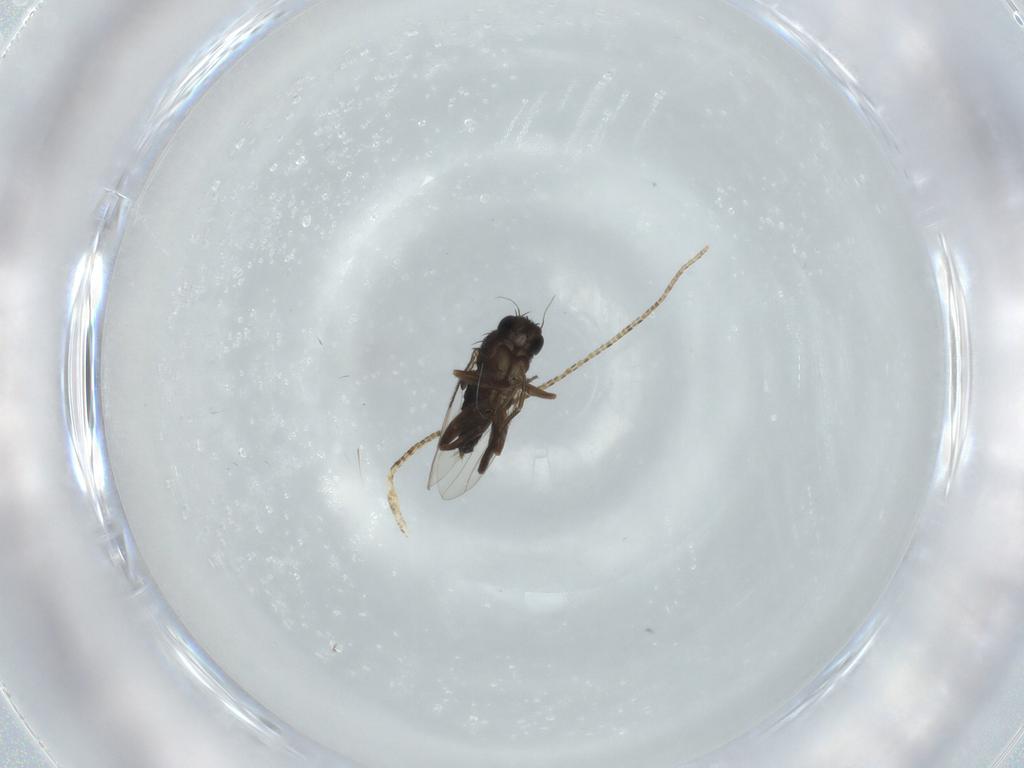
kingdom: Animalia
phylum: Arthropoda
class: Insecta
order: Diptera
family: Phoridae
